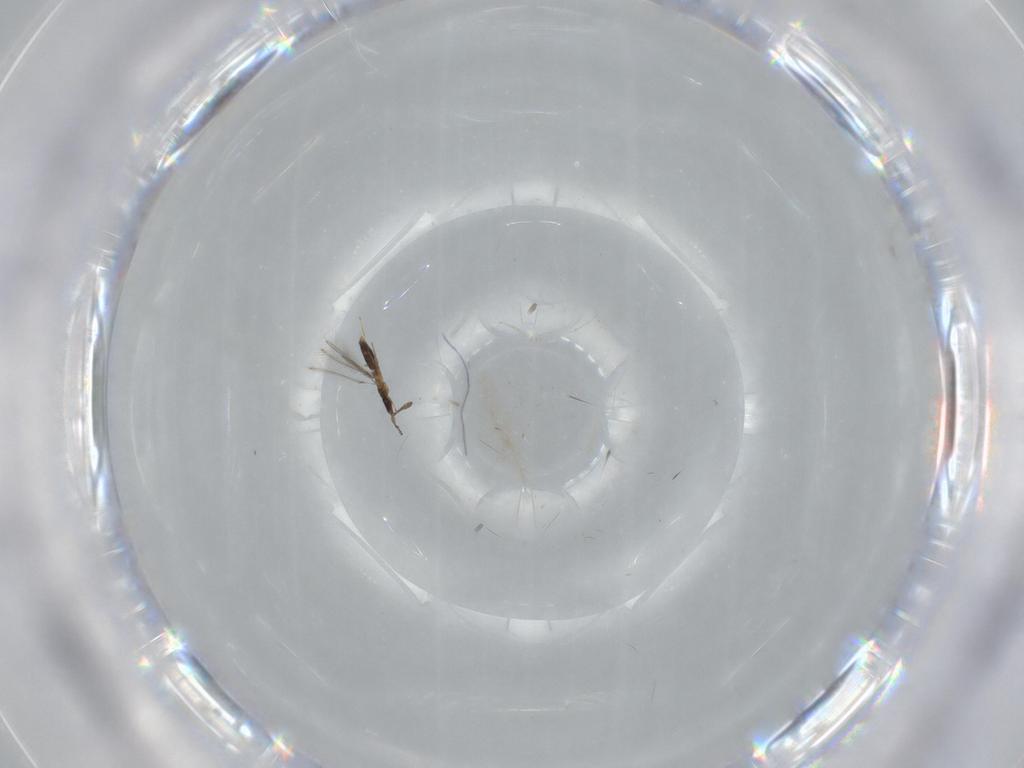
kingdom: Animalia
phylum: Arthropoda
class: Insecta
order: Hymenoptera
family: Mymaridae
